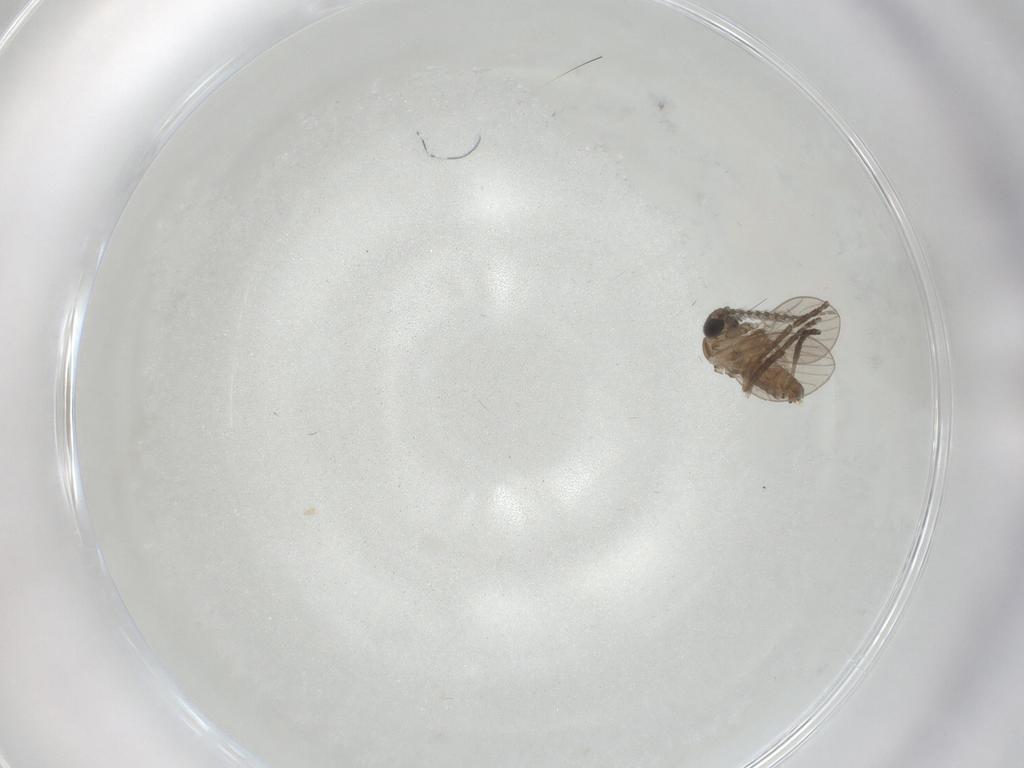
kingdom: Animalia
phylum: Arthropoda
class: Insecta
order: Diptera
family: Psychodidae
